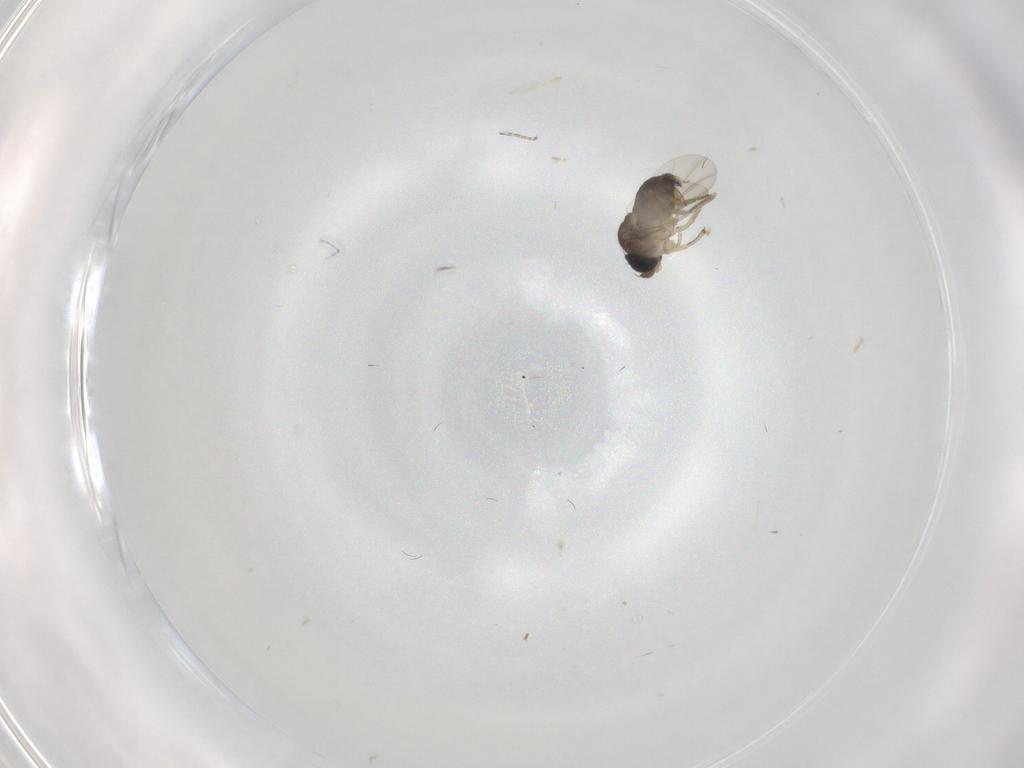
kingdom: Animalia
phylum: Arthropoda
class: Insecta
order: Diptera
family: Phoridae
